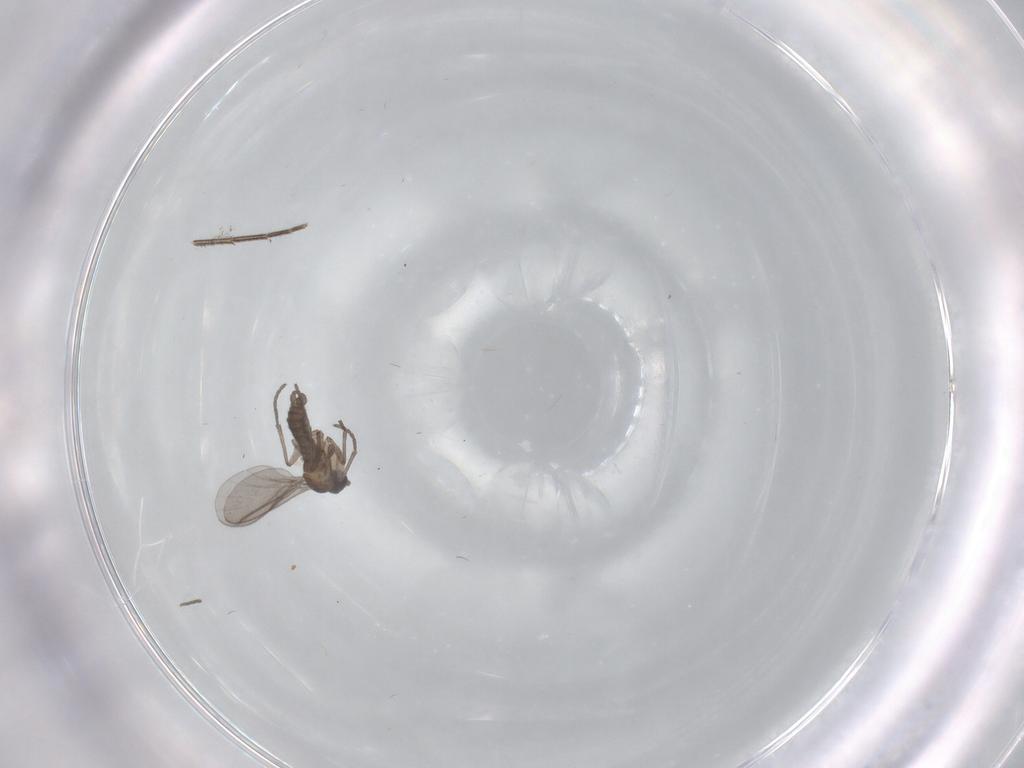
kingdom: Animalia
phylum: Arthropoda
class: Insecta
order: Diptera
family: Sciaridae
